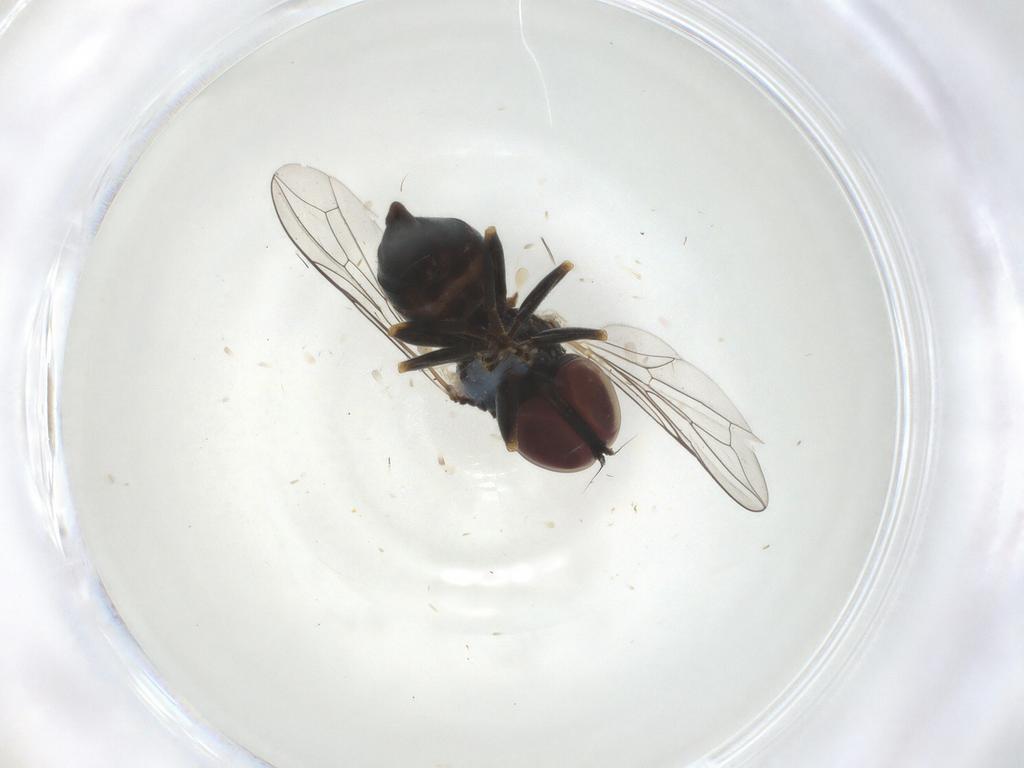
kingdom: Animalia
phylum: Arthropoda
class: Insecta
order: Diptera
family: Pipunculidae
